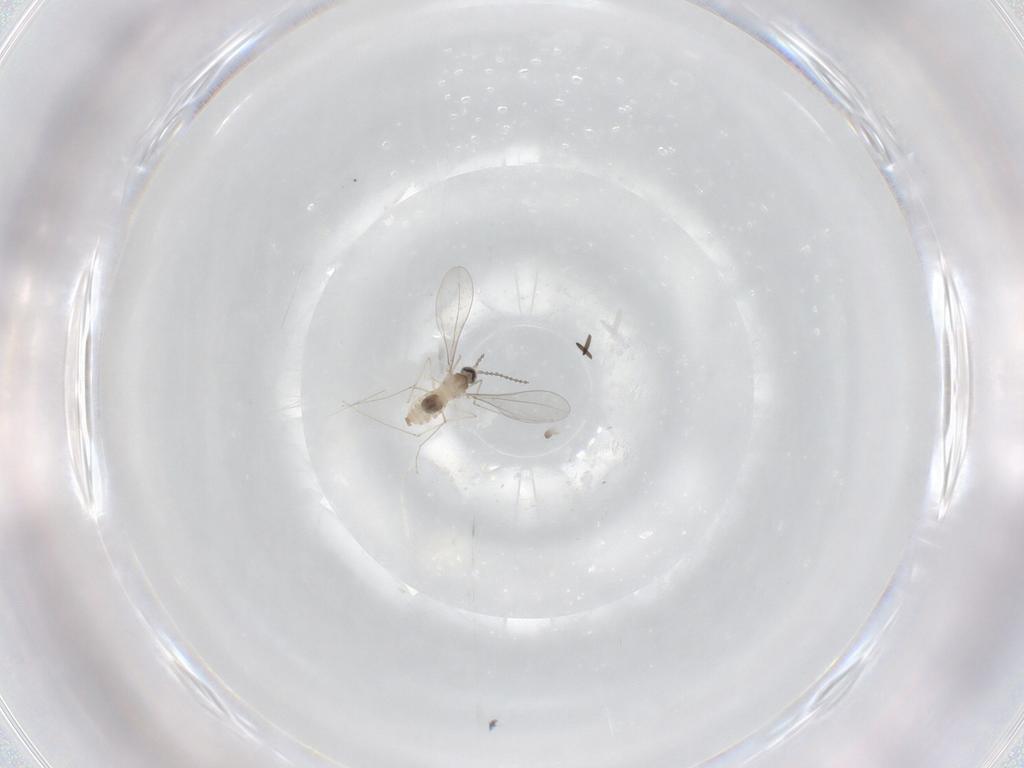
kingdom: Animalia
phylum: Arthropoda
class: Insecta
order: Diptera
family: Cecidomyiidae
